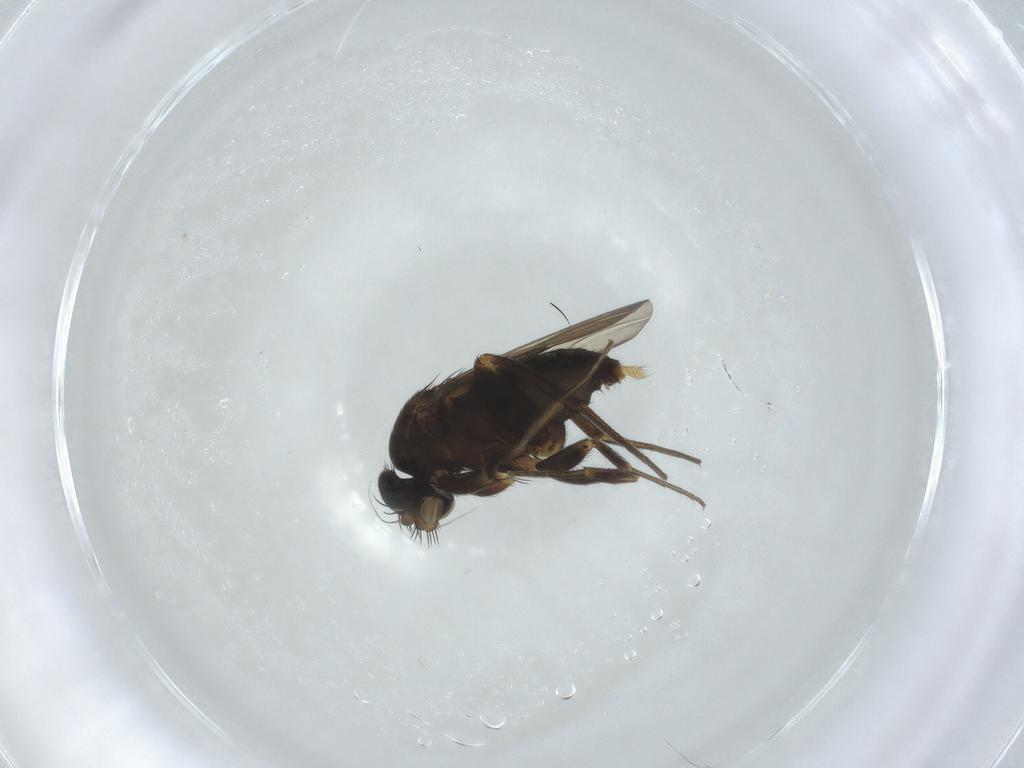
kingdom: Animalia
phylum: Arthropoda
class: Insecta
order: Diptera
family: Phoridae
